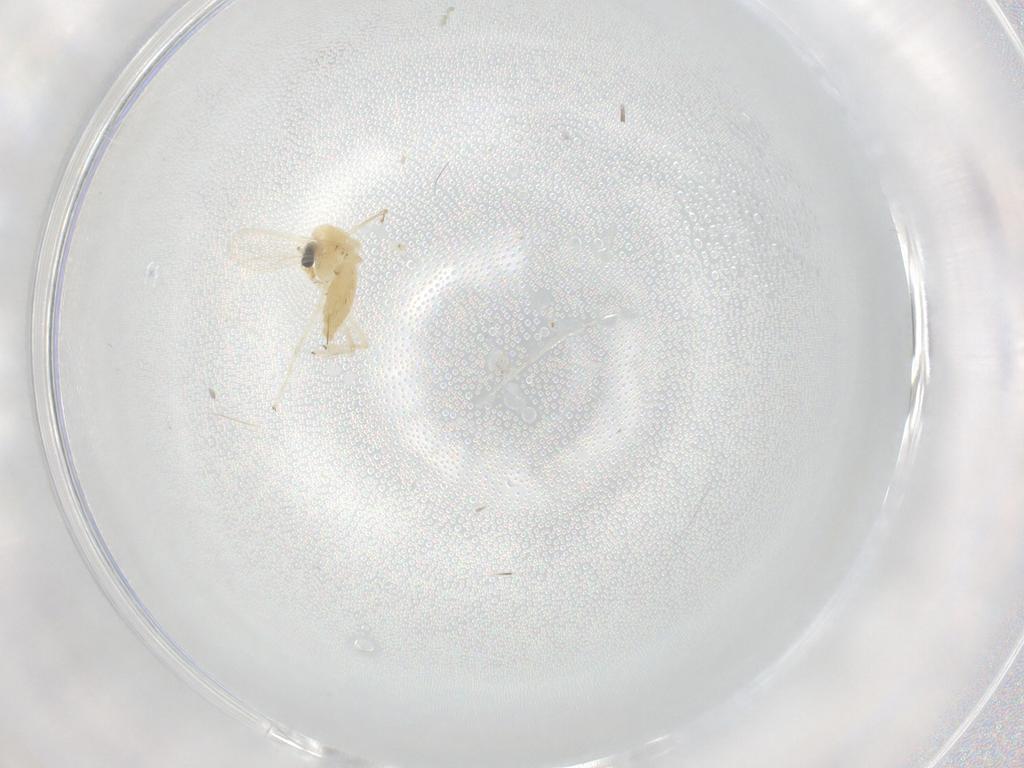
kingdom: Animalia
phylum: Arthropoda
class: Insecta
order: Diptera
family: Chironomidae
